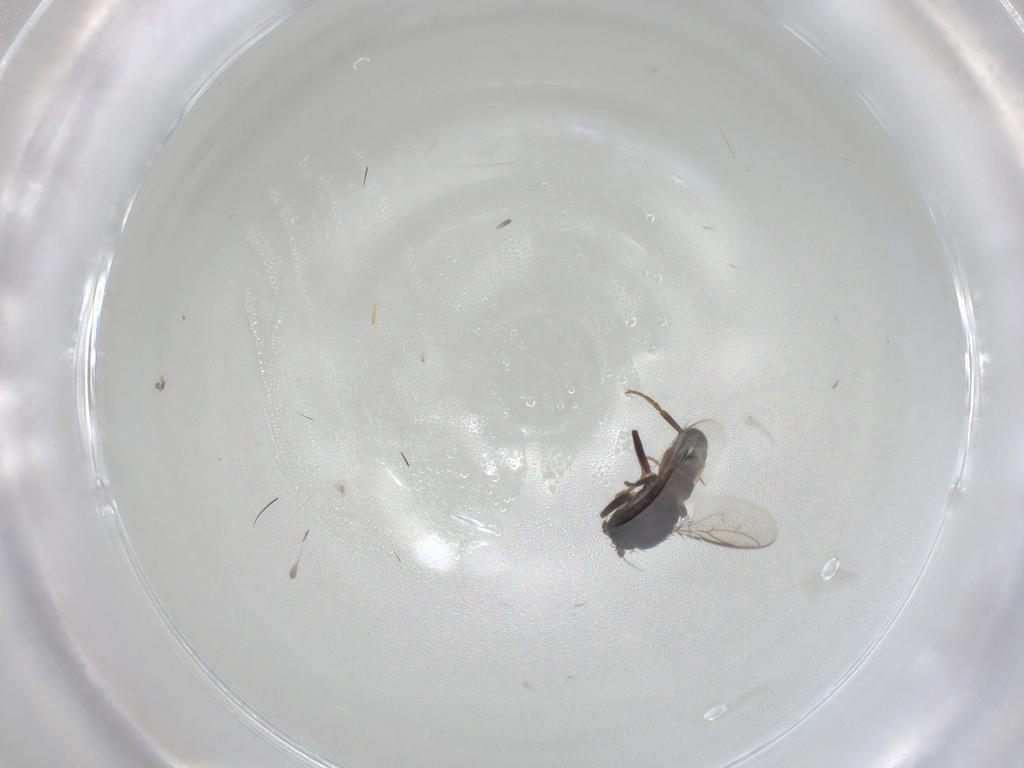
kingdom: Animalia
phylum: Arthropoda
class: Insecta
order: Diptera
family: Sphaeroceridae
